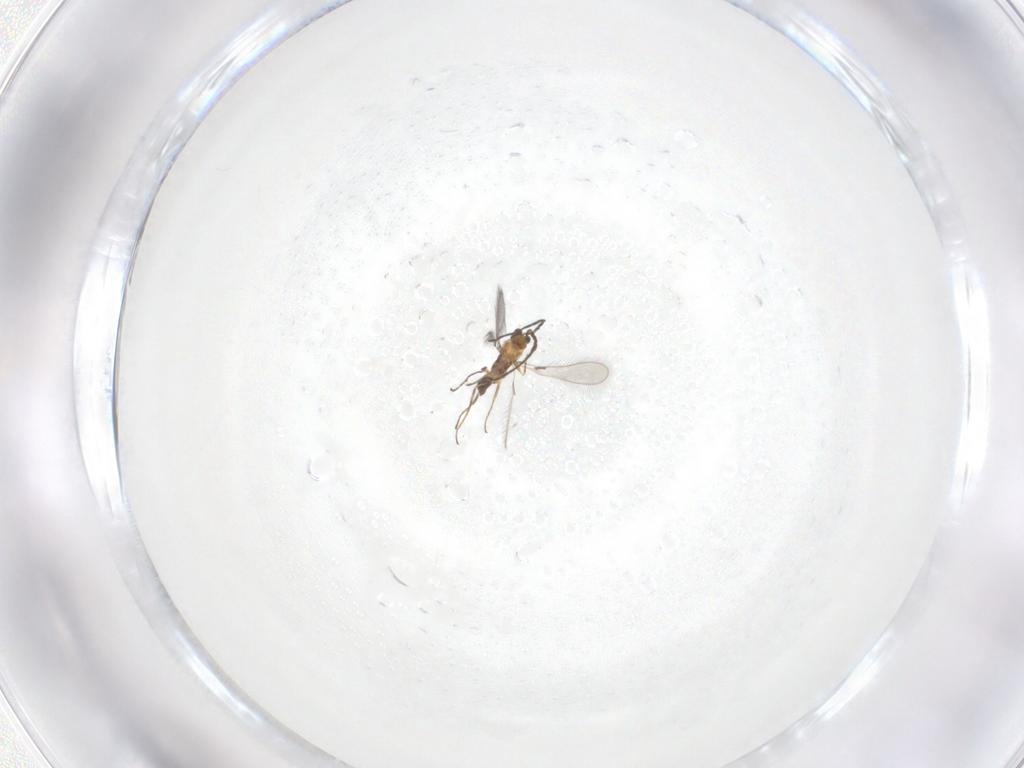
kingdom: Animalia
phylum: Arthropoda
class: Insecta
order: Hymenoptera
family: Mymaridae
